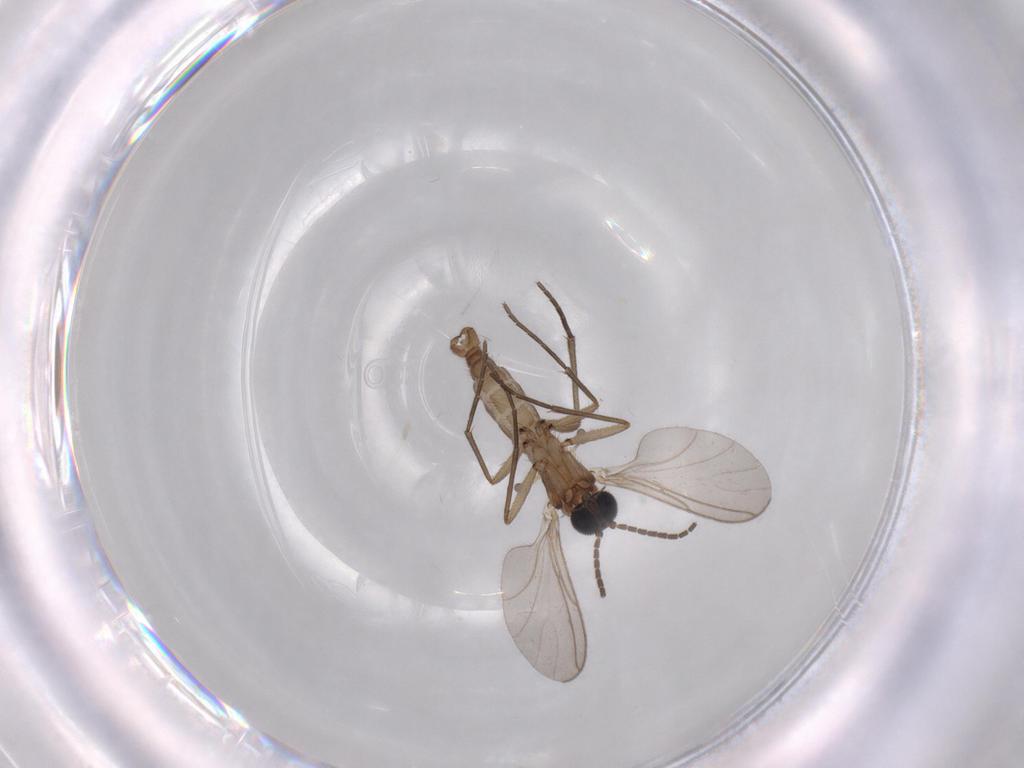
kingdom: Animalia
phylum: Arthropoda
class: Insecta
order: Diptera
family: Sciaridae
